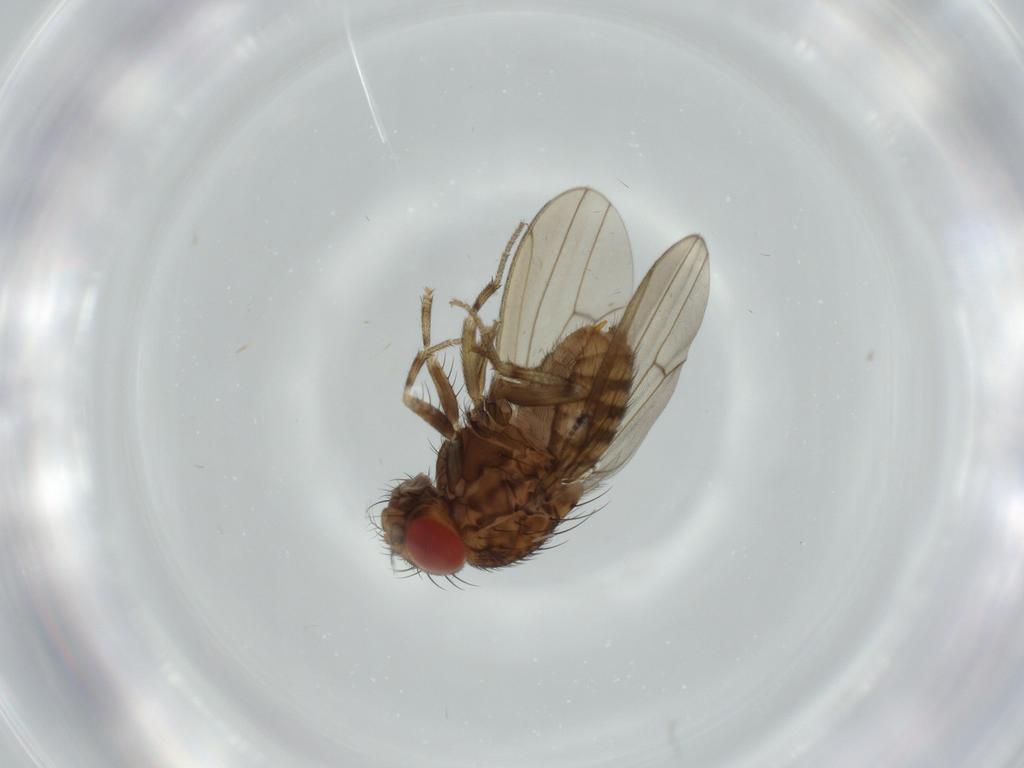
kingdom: Animalia
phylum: Arthropoda
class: Insecta
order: Diptera
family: Drosophilidae
